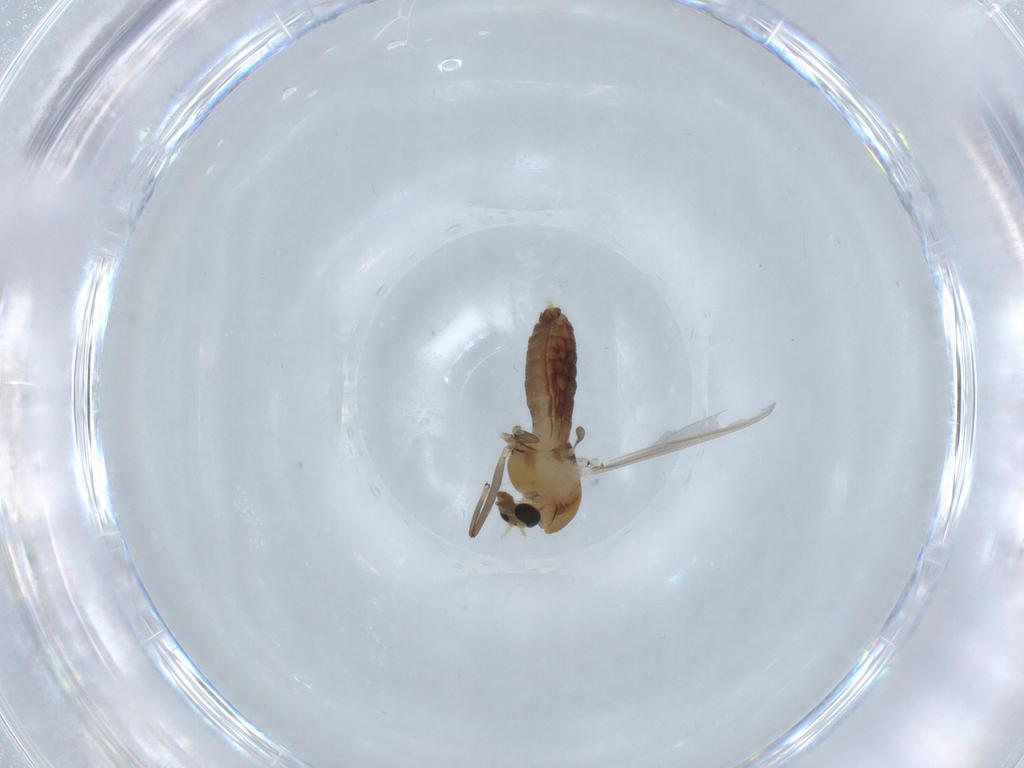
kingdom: Animalia
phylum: Arthropoda
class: Insecta
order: Diptera
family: Chironomidae
